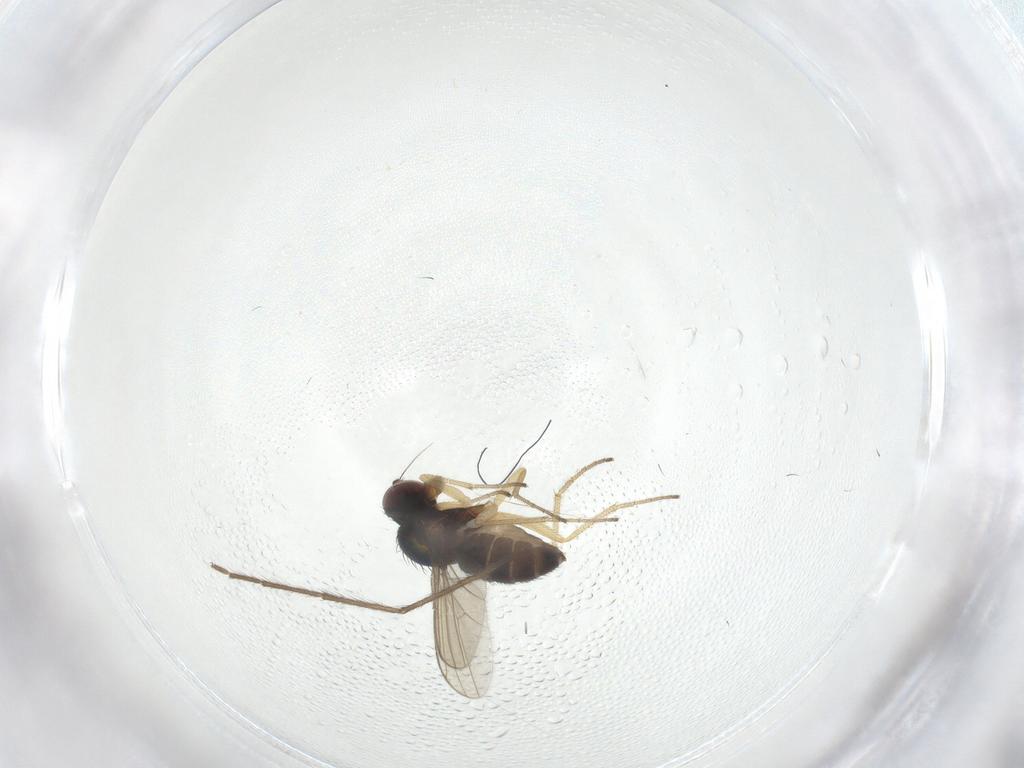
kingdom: Animalia
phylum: Arthropoda
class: Insecta
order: Diptera
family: Dolichopodidae
